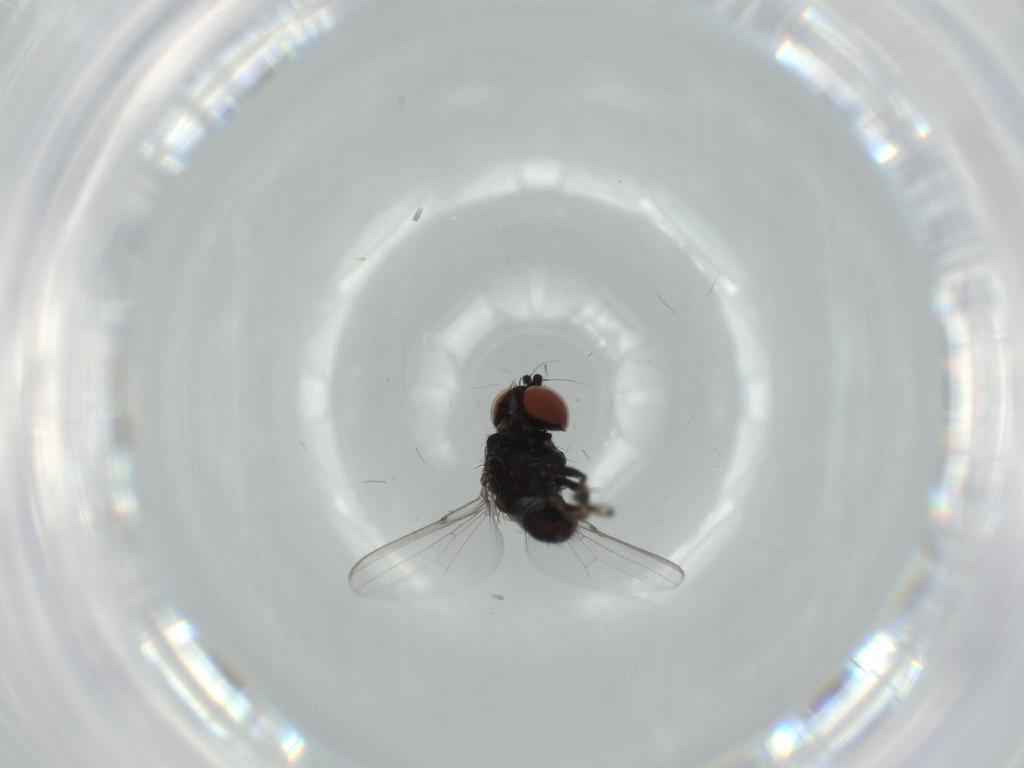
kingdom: Animalia
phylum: Arthropoda
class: Insecta
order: Diptera
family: Milichiidae
